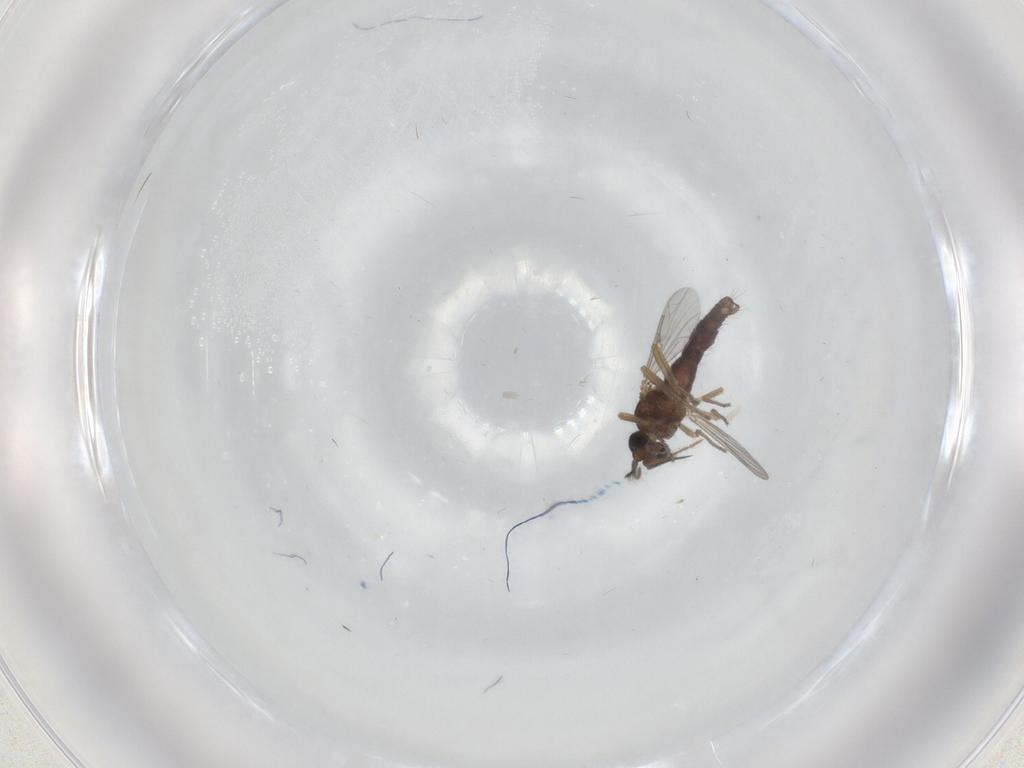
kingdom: Animalia
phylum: Arthropoda
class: Insecta
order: Diptera
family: Ceratopogonidae
